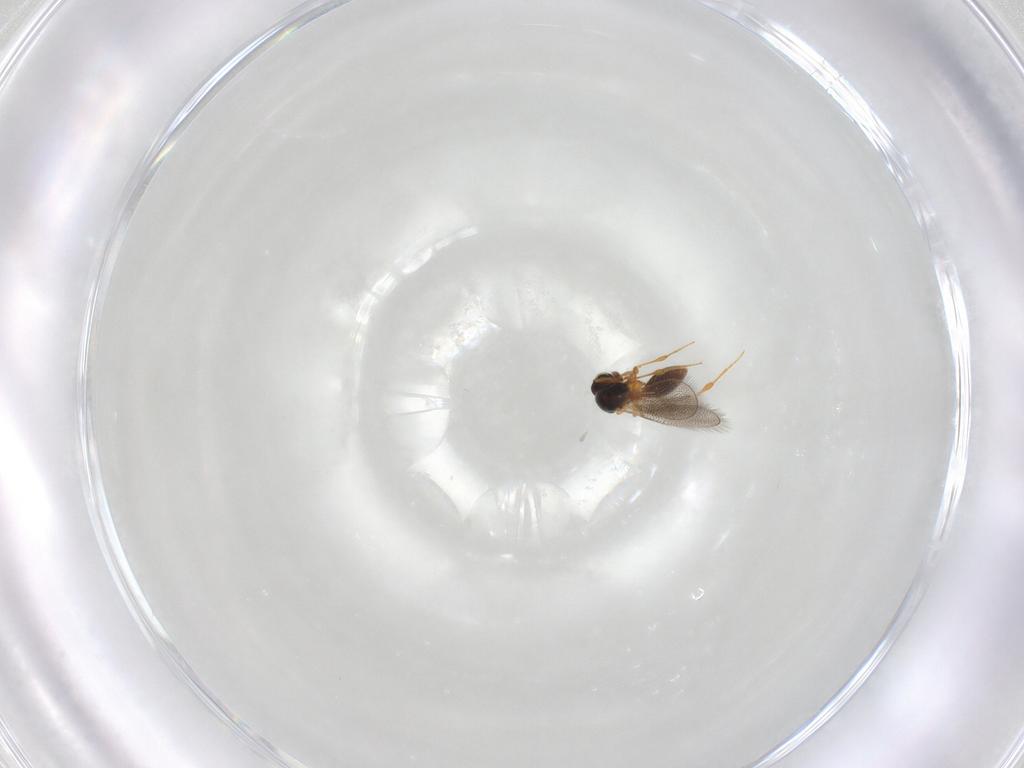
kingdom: Animalia
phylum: Arthropoda
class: Insecta
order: Hymenoptera
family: Platygastridae
